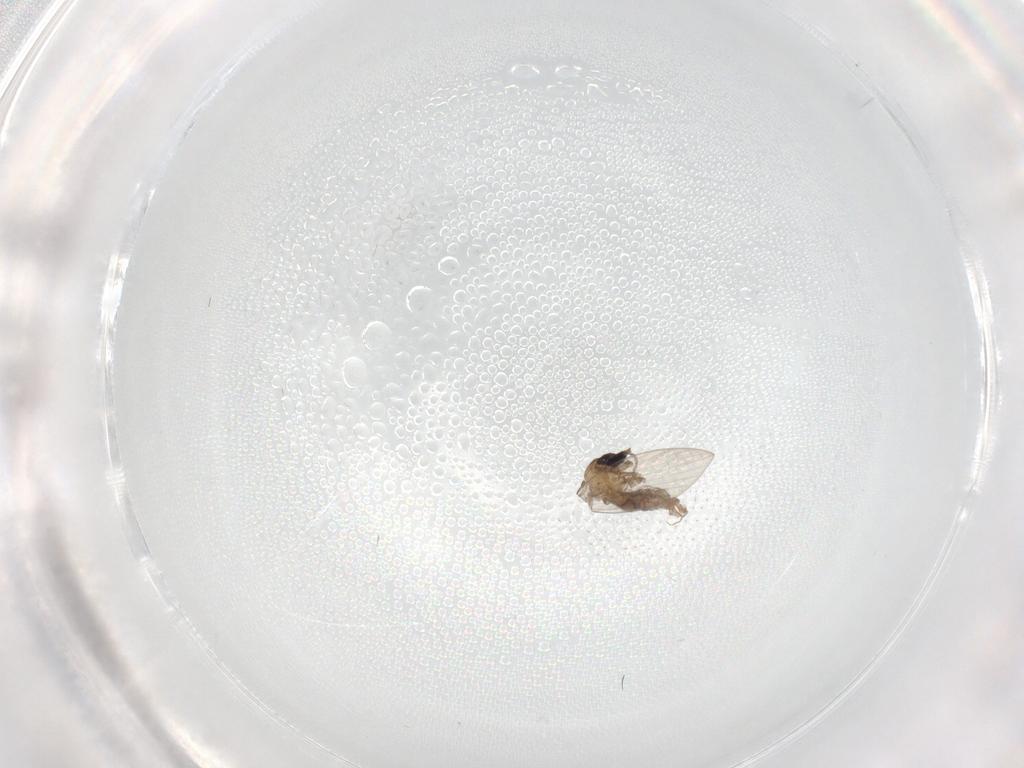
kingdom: Animalia
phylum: Arthropoda
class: Insecta
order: Diptera
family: Psychodidae
